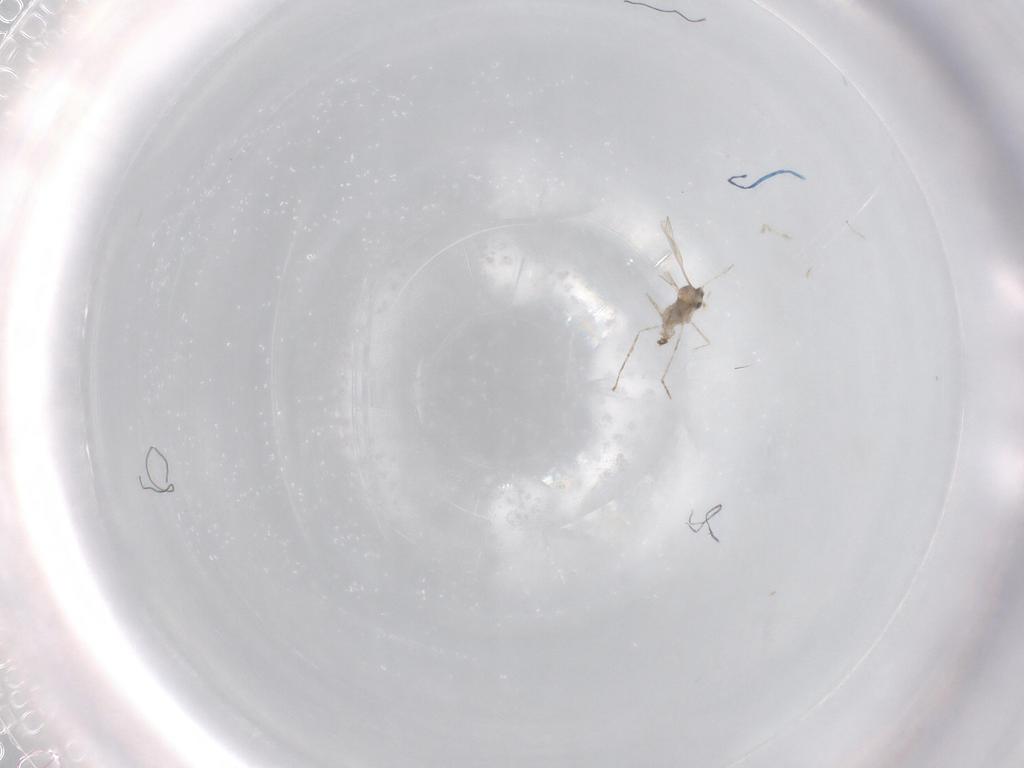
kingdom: Animalia
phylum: Arthropoda
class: Insecta
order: Diptera
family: Cecidomyiidae
